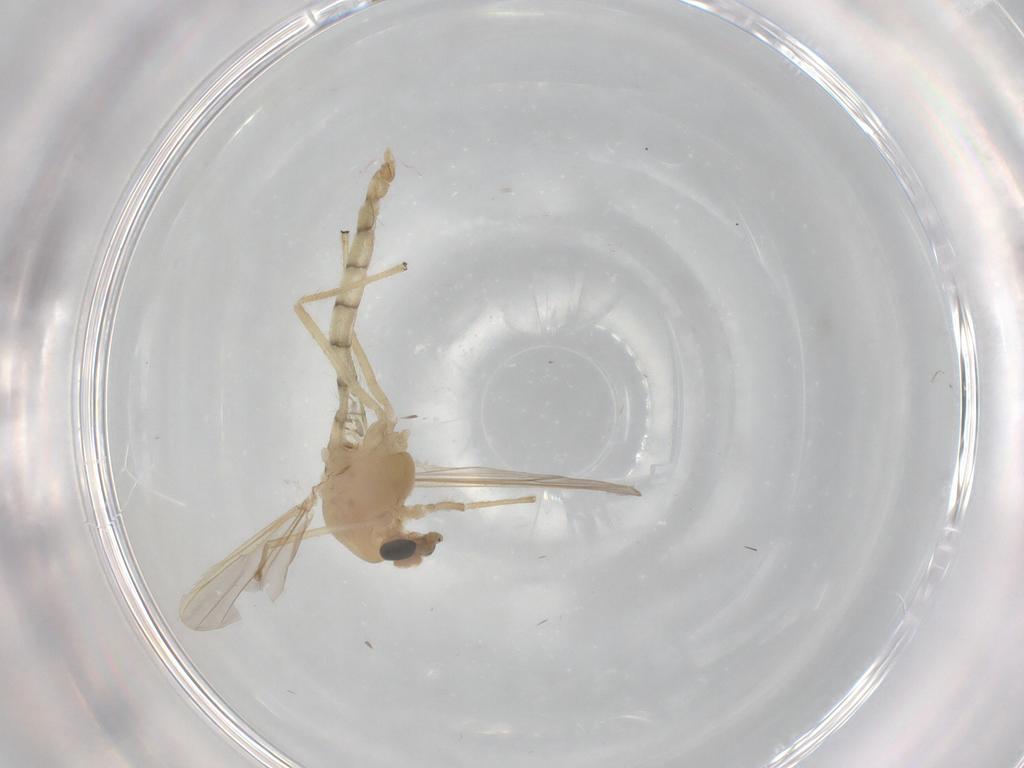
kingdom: Animalia
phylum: Arthropoda
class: Insecta
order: Diptera
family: Chironomidae
